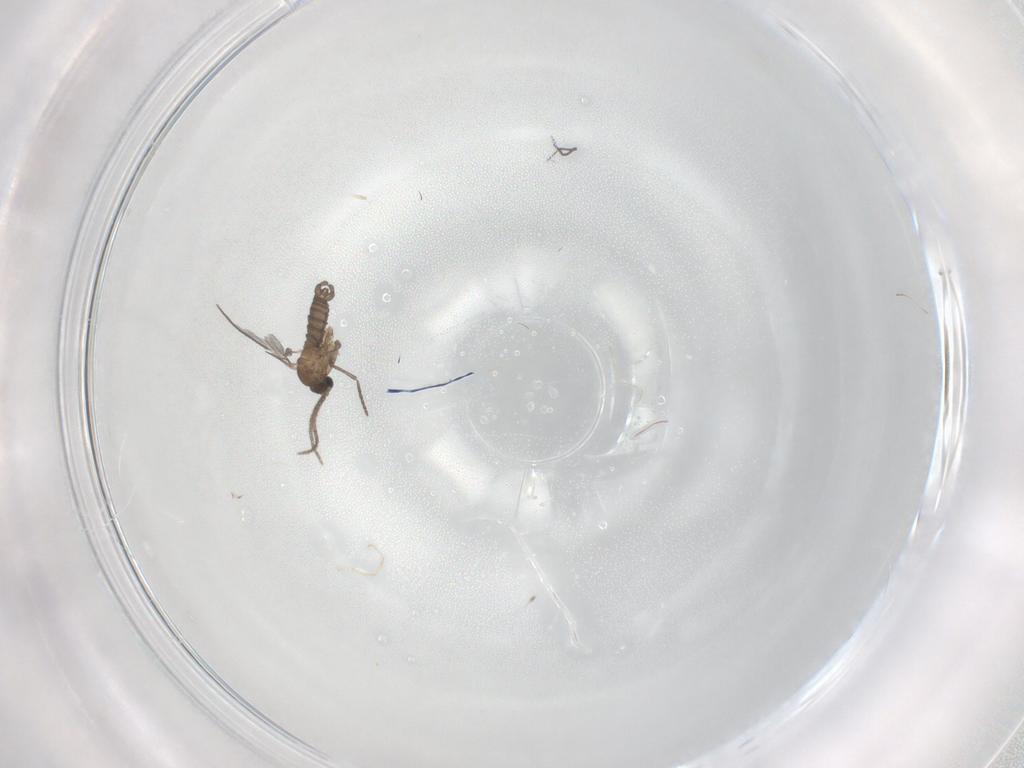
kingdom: Animalia
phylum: Arthropoda
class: Insecta
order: Diptera
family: Sciaridae
